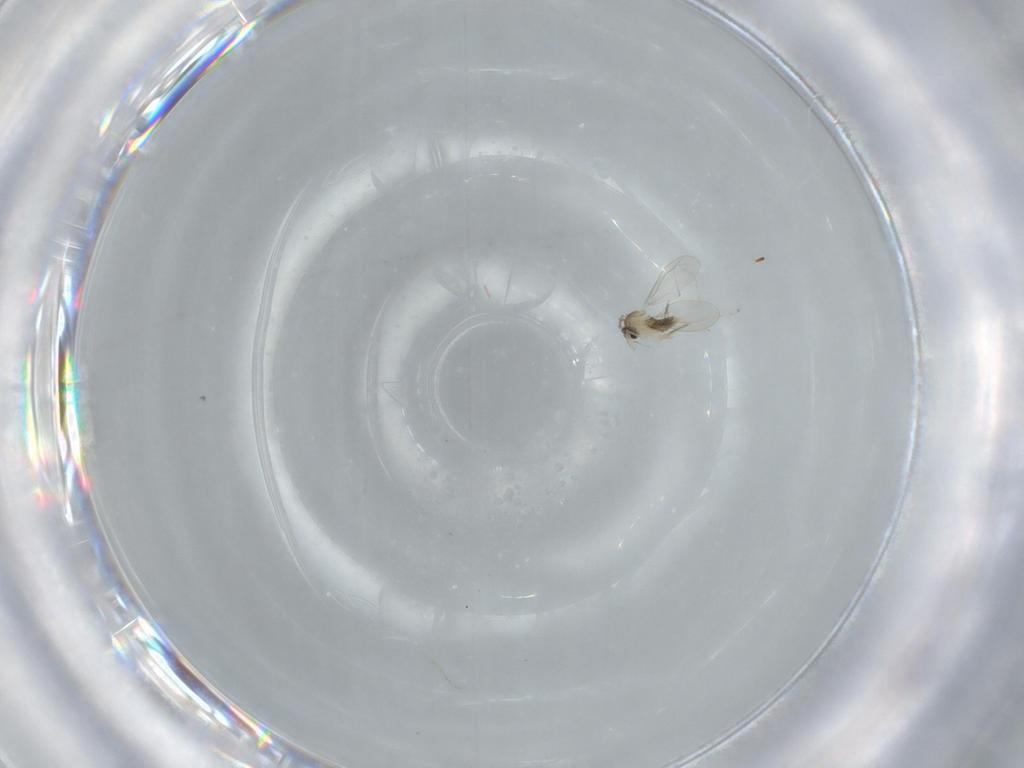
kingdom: Animalia
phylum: Arthropoda
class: Insecta
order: Diptera
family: Cecidomyiidae
